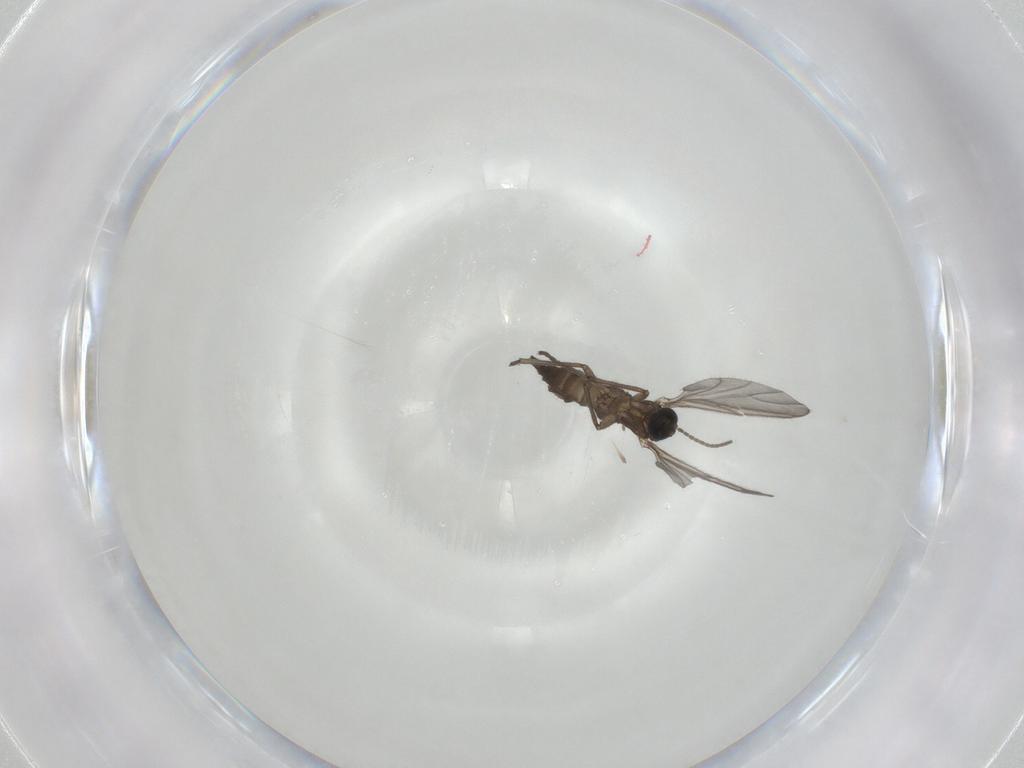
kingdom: Animalia
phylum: Arthropoda
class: Insecta
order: Diptera
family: Sciaridae
